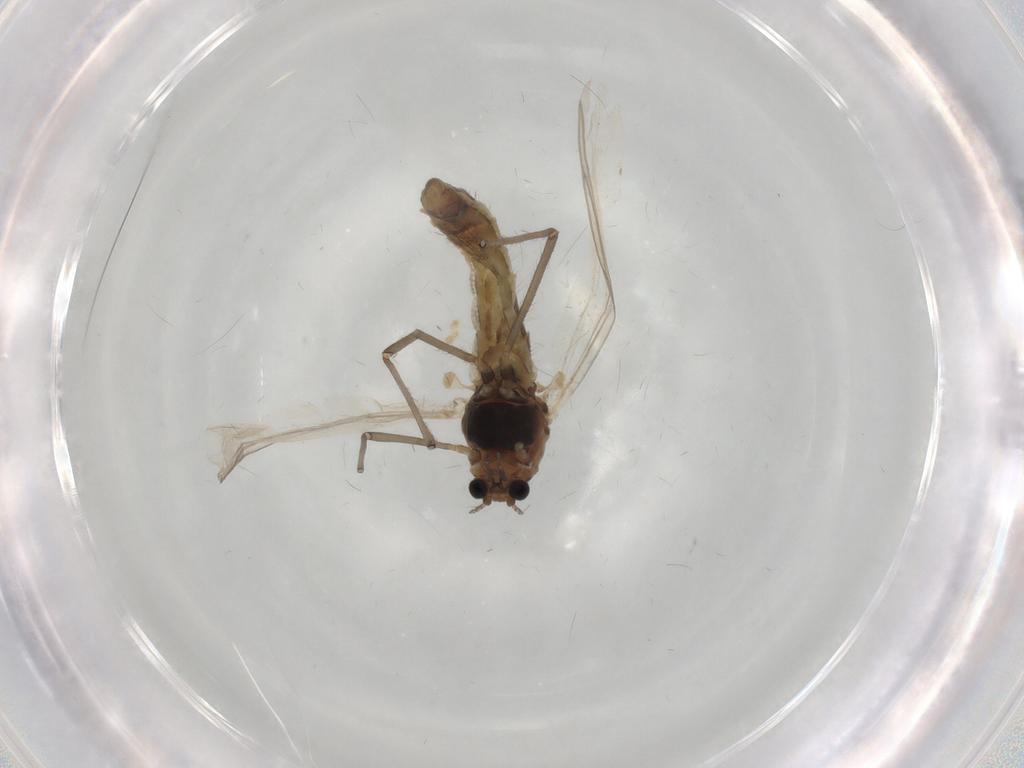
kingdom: Animalia
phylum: Arthropoda
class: Insecta
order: Diptera
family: Chironomidae
